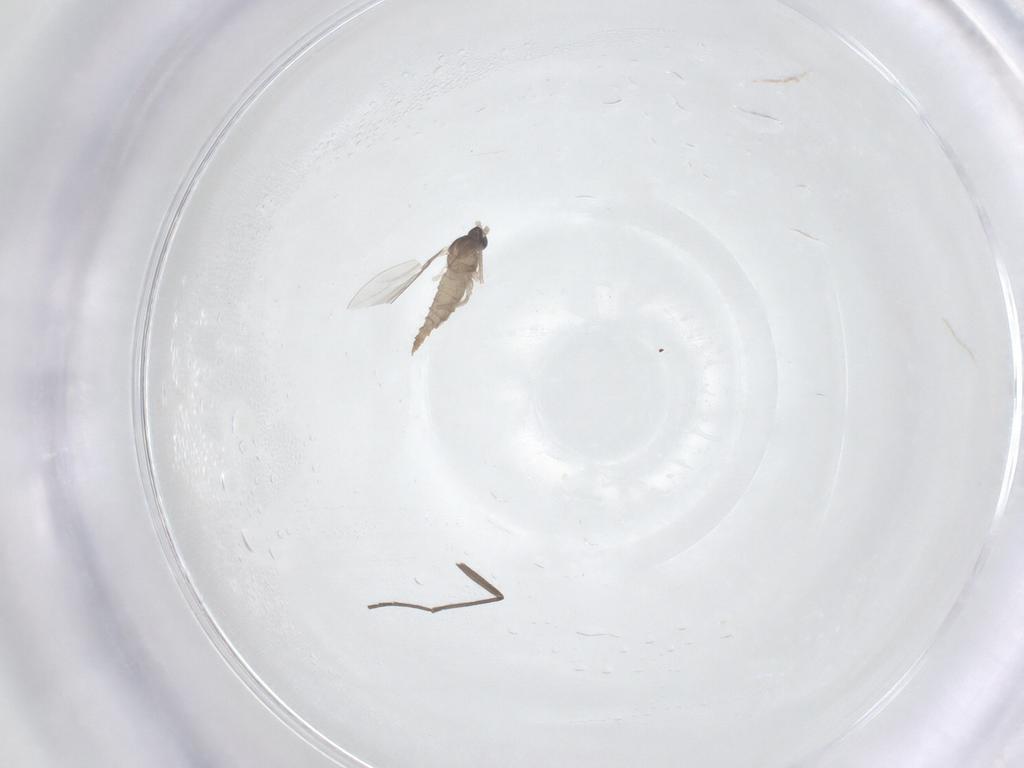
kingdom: Animalia
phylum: Arthropoda
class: Insecta
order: Diptera
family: Cecidomyiidae
